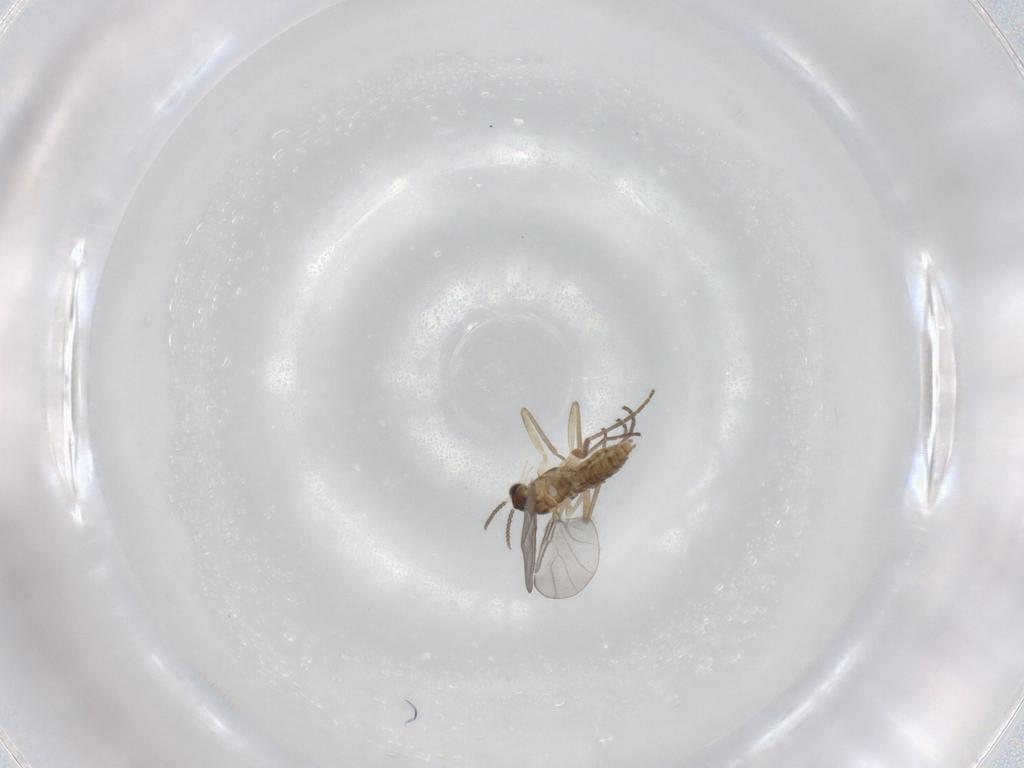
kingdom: Animalia
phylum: Arthropoda
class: Insecta
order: Diptera
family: Cecidomyiidae
